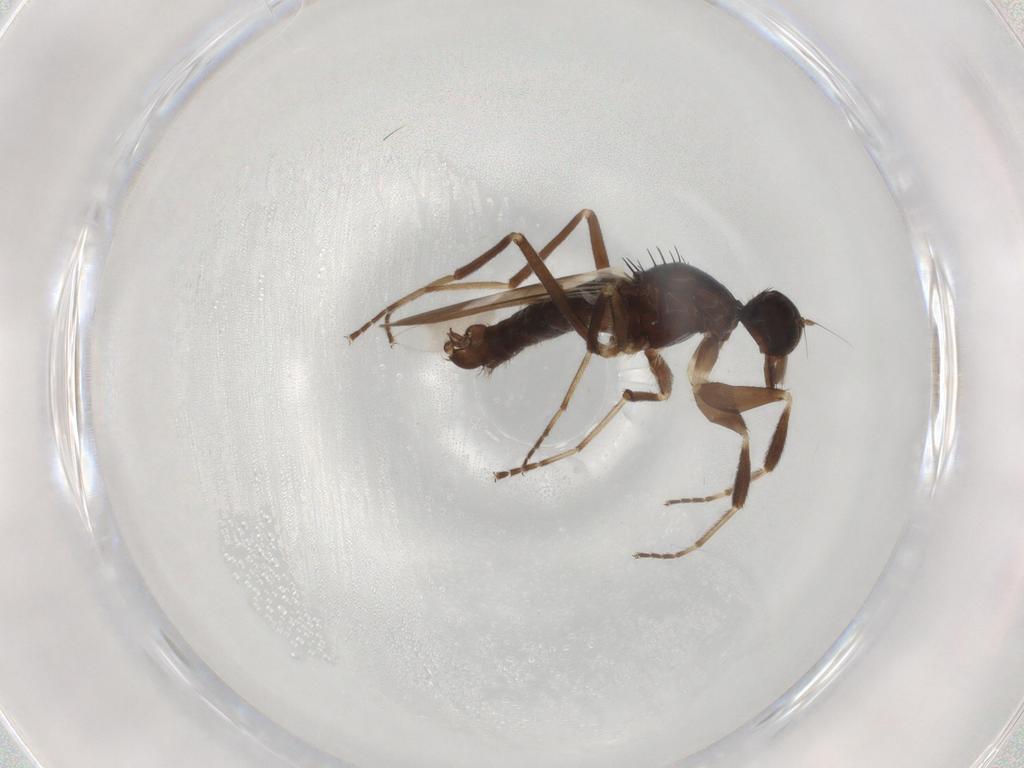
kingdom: Animalia
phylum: Arthropoda
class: Insecta
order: Diptera
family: Hybotidae
